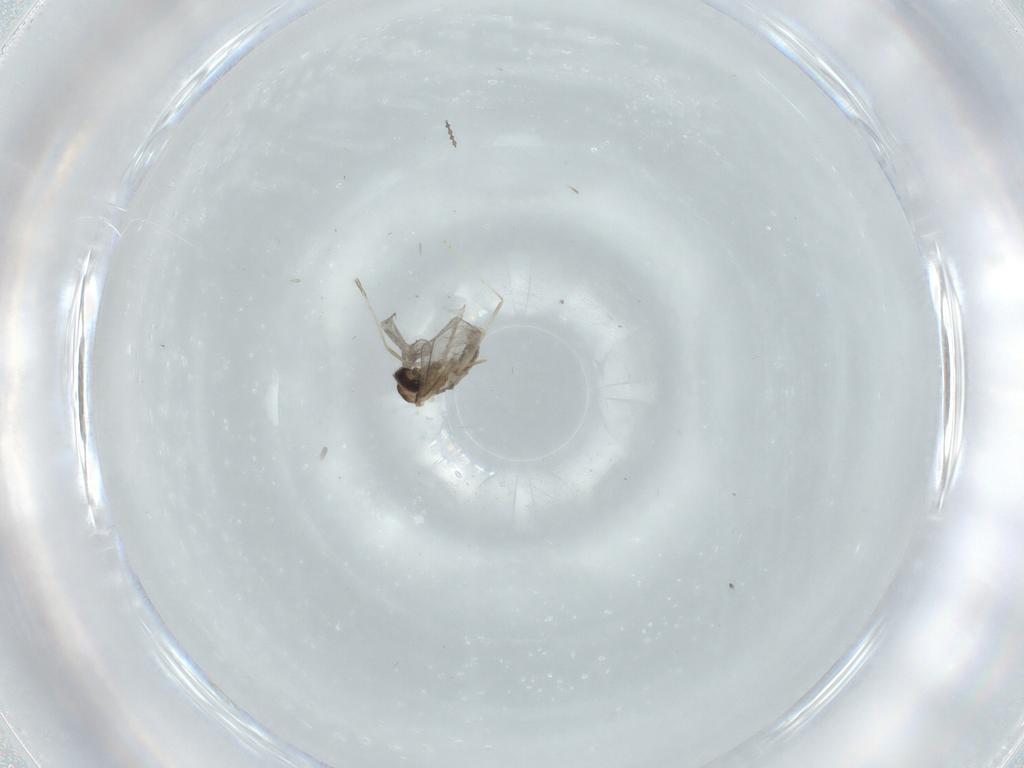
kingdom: Animalia
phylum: Arthropoda
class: Insecta
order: Diptera
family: Cecidomyiidae
